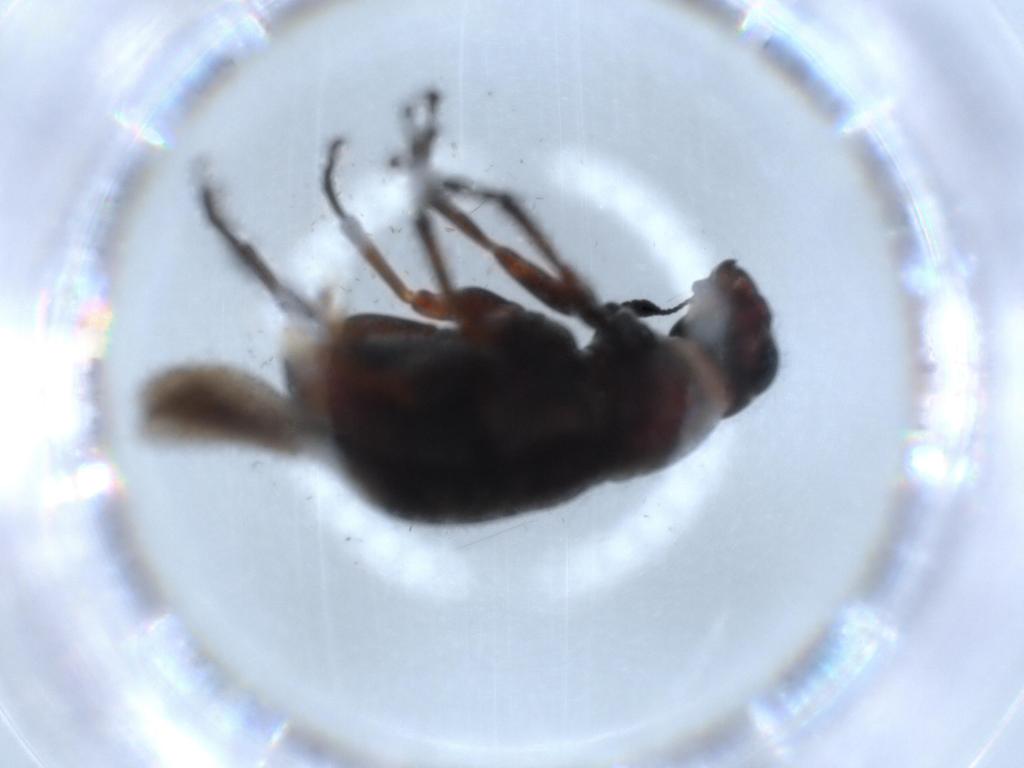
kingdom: Animalia
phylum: Arthropoda
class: Insecta
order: Coleoptera
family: Anthribidae
